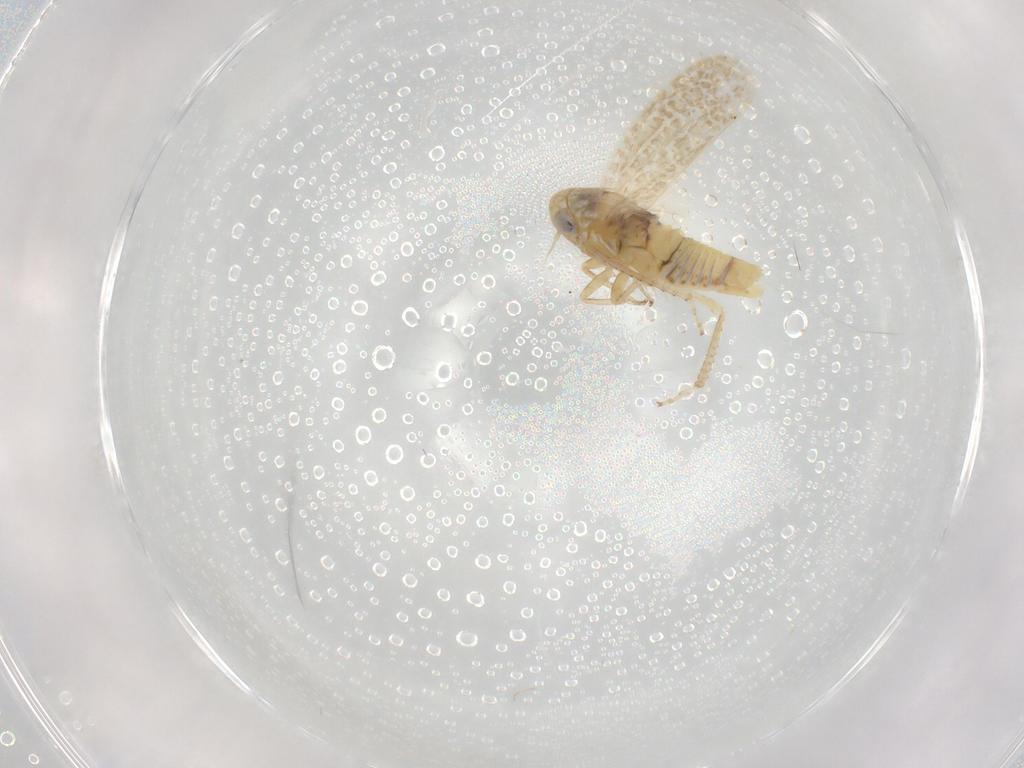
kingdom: Animalia
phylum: Arthropoda
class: Insecta
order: Hemiptera
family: Cicadellidae
